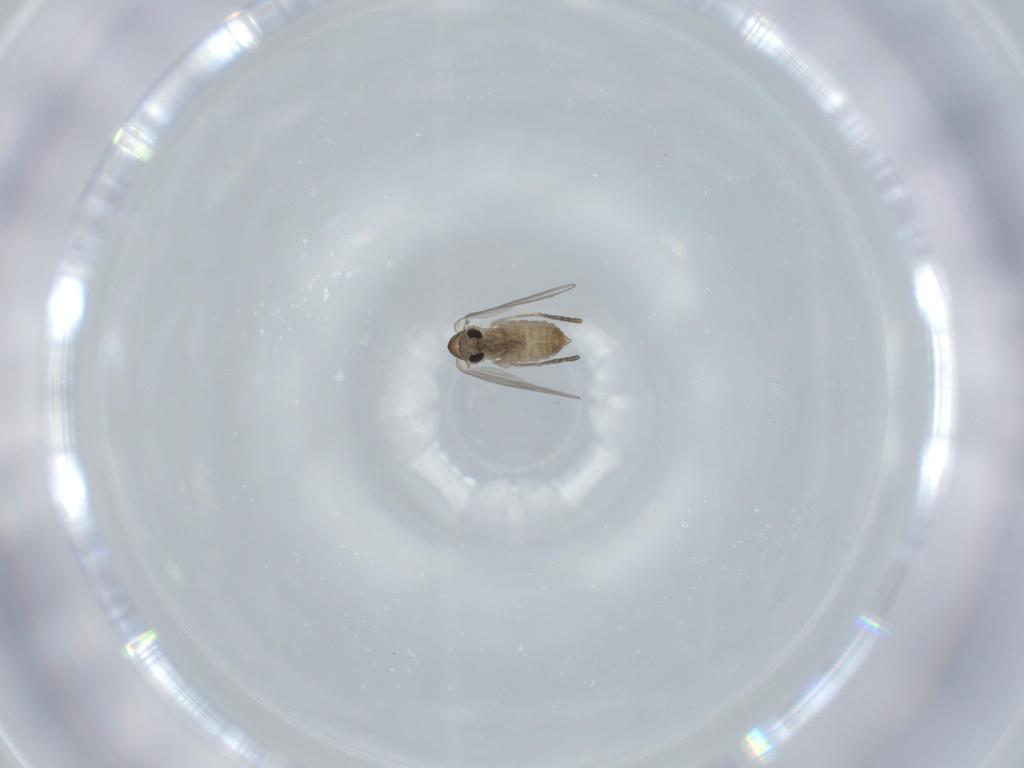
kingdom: Animalia
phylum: Arthropoda
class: Insecta
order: Diptera
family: Psychodidae
